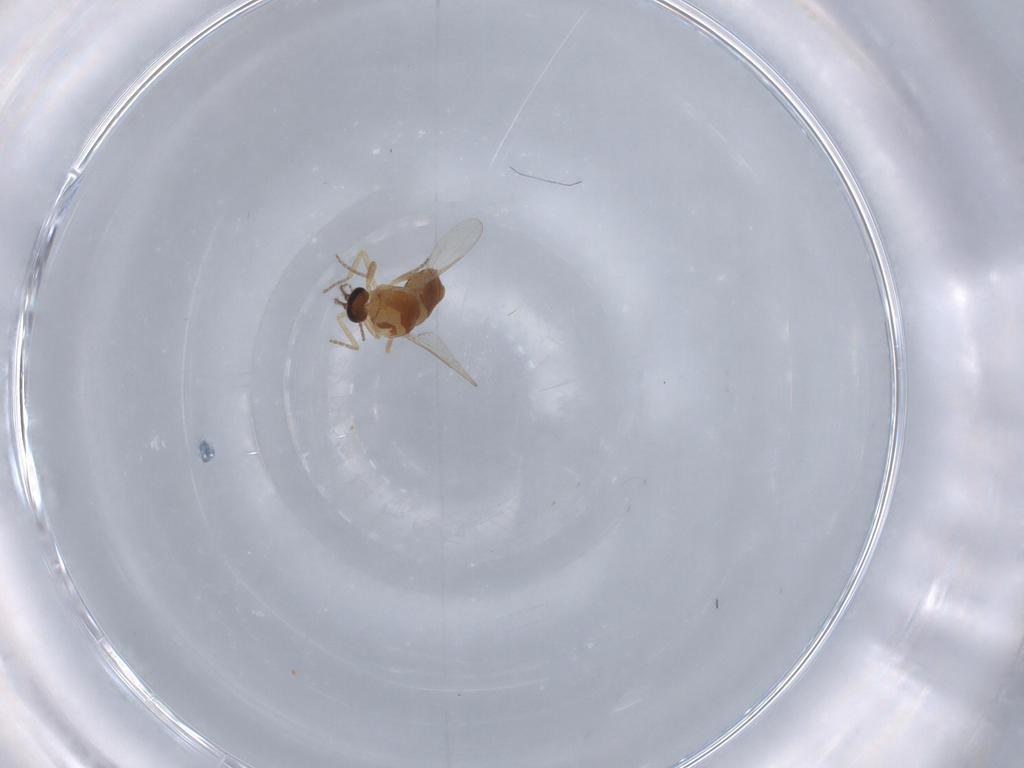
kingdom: Animalia
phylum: Arthropoda
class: Insecta
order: Diptera
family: Ceratopogonidae
